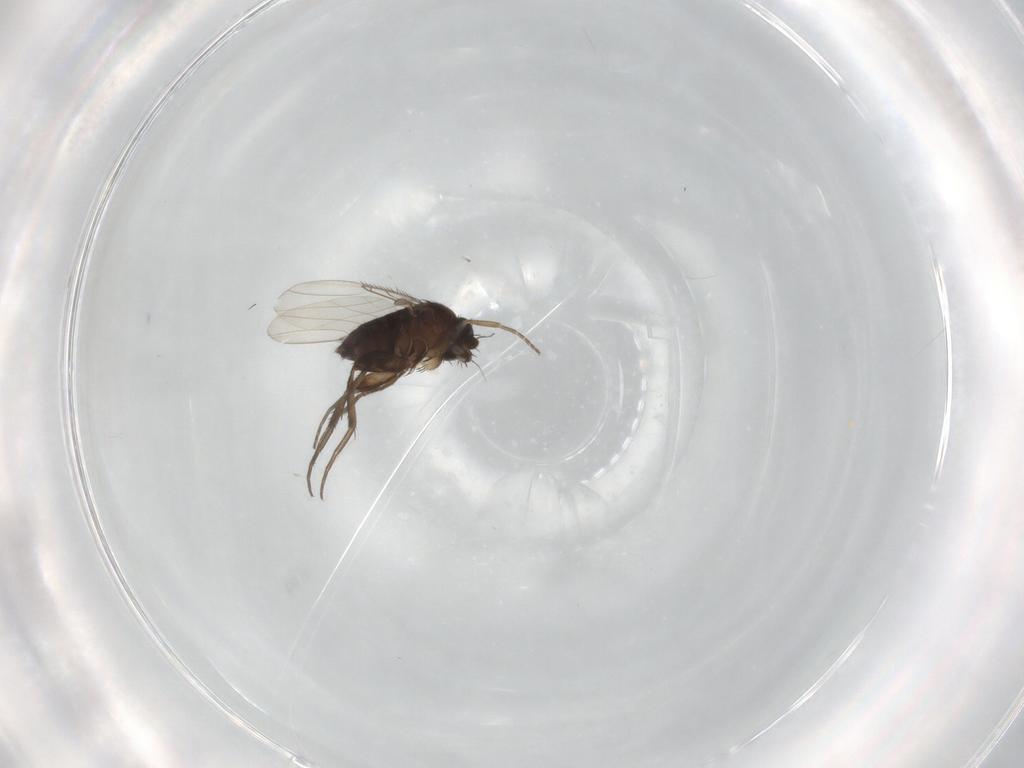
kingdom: Animalia
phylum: Arthropoda
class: Insecta
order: Diptera
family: Phoridae
